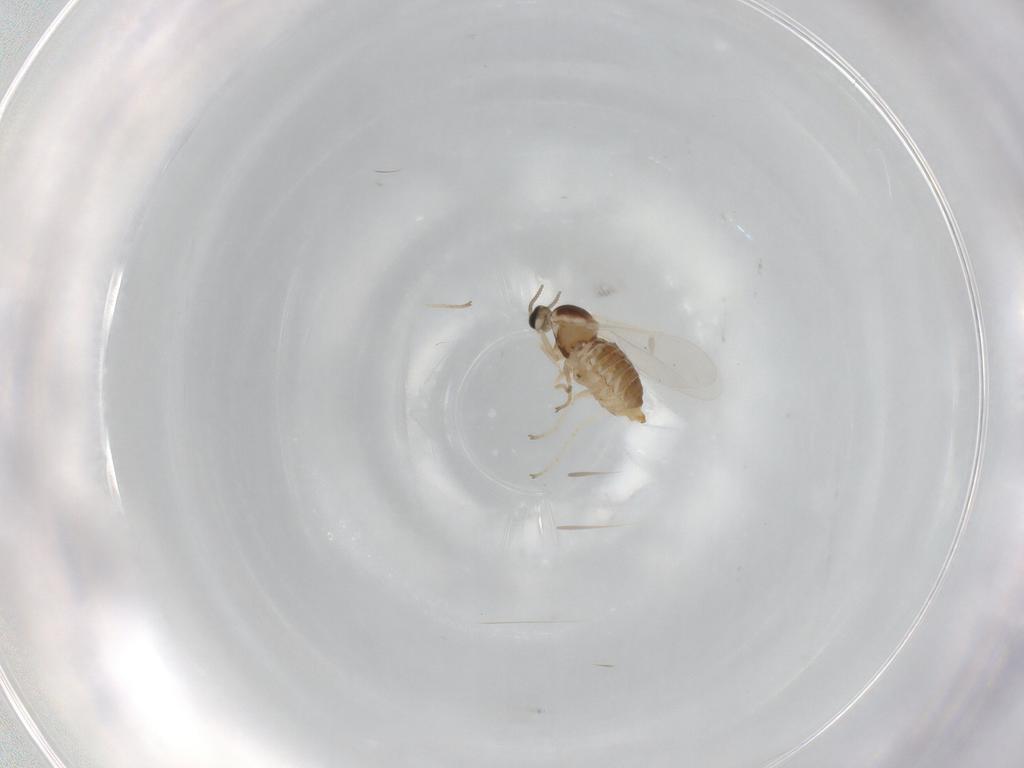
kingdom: Animalia
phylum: Arthropoda
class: Insecta
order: Diptera
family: Cecidomyiidae
